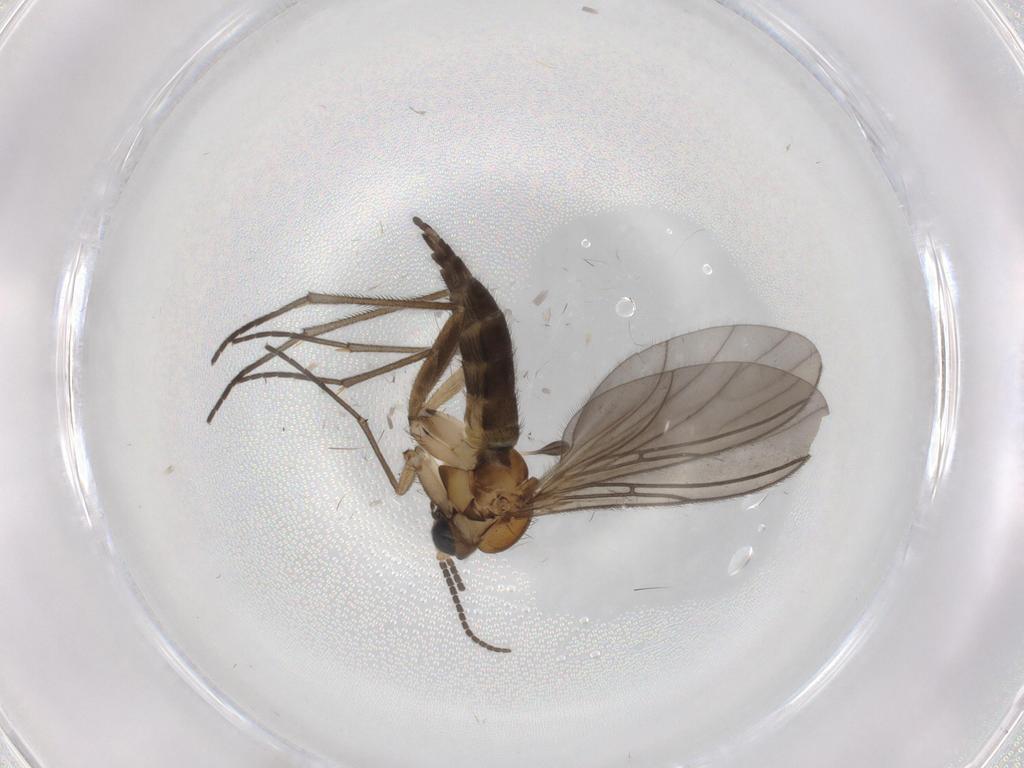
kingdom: Animalia
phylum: Arthropoda
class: Insecta
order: Diptera
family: Sciaridae
